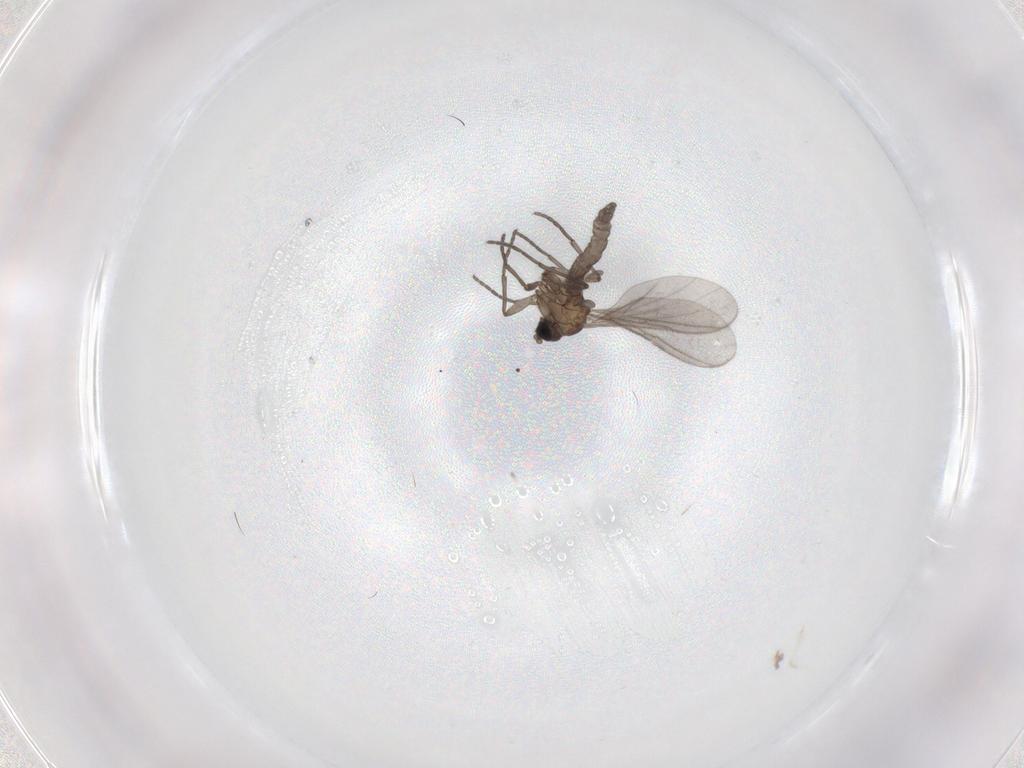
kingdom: Animalia
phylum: Arthropoda
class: Insecta
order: Diptera
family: Sciaridae
